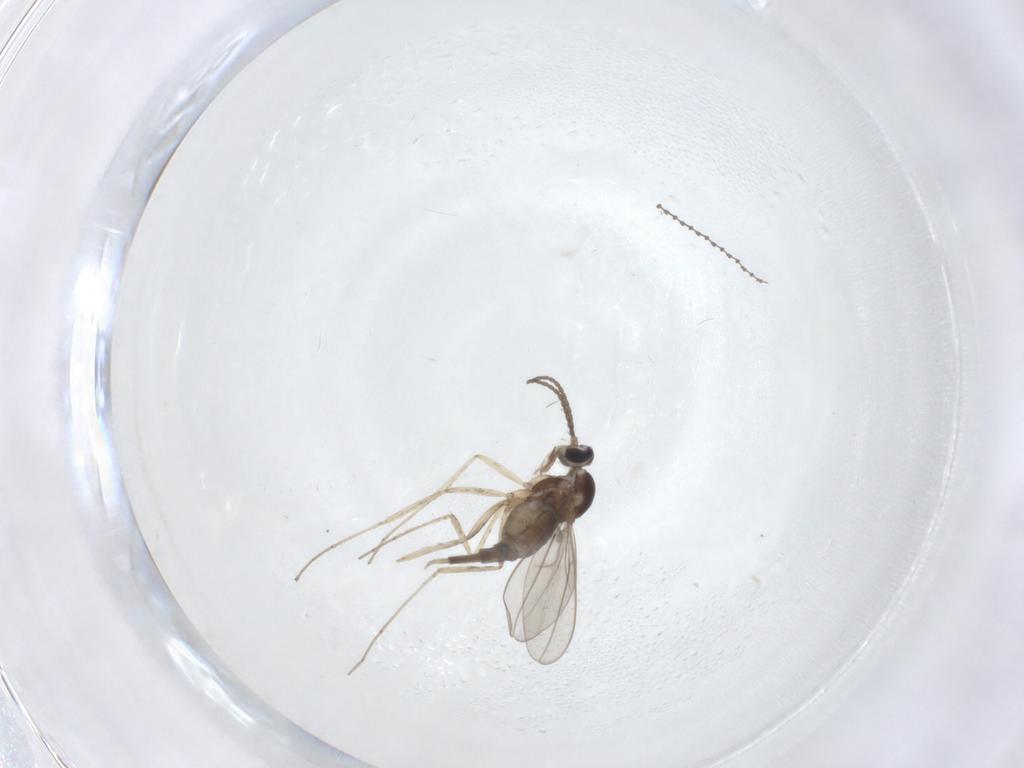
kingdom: Animalia
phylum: Arthropoda
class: Insecta
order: Diptera
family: Cecidomyiidae
